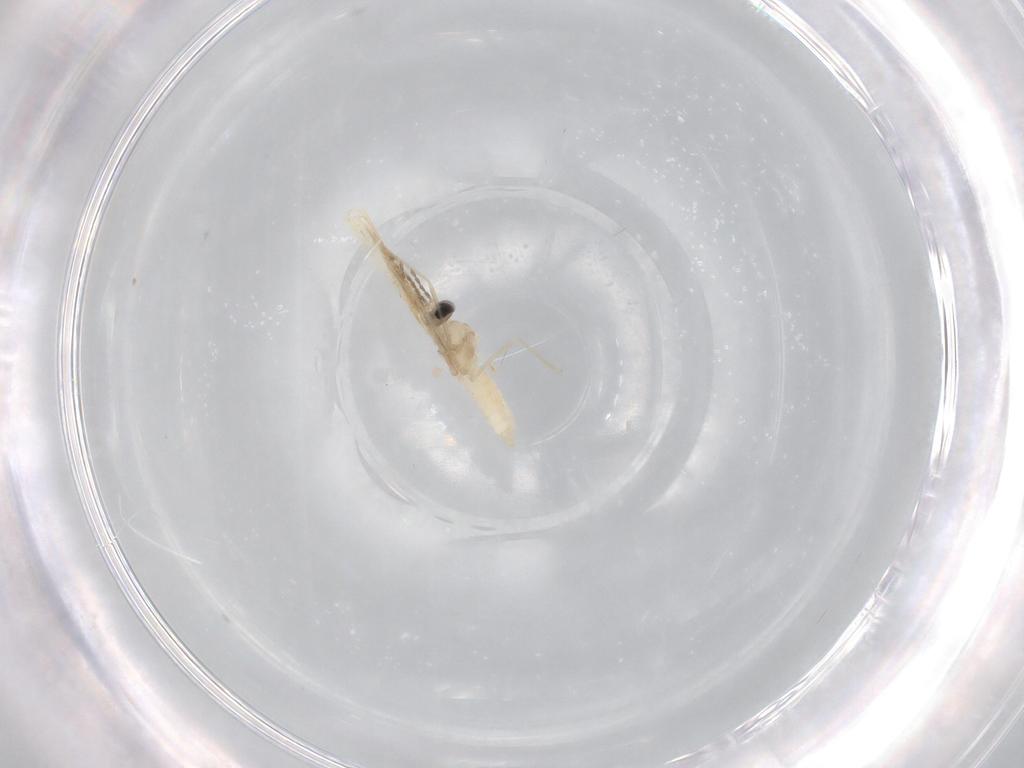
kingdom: Animalia
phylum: Arthropoda
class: Insecta
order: Diptera
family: Cecidomyiidae
